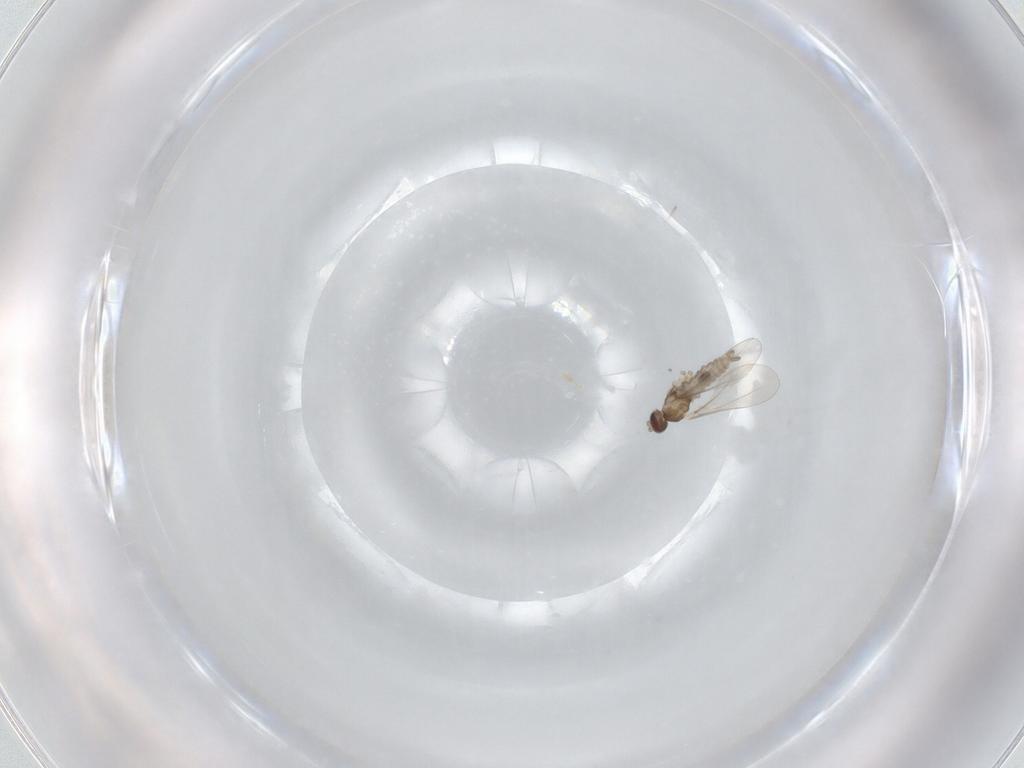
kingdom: Animalia
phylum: Arthropoda
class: Insecta
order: Diptera
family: Cecidomyiidae
